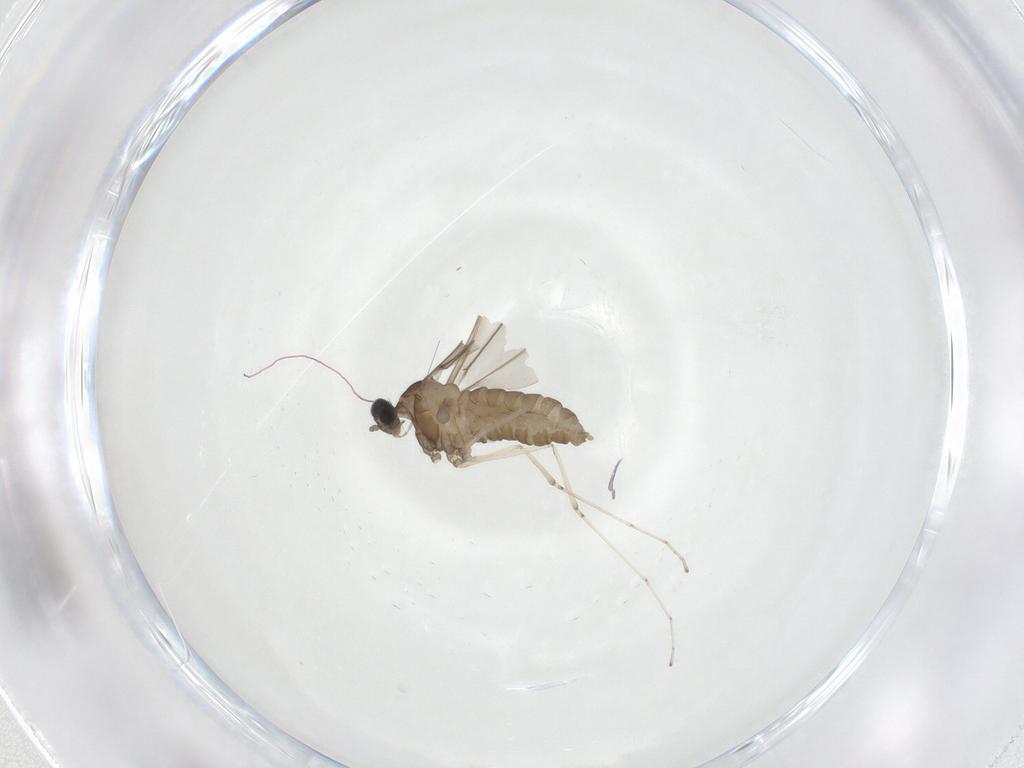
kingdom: Animalia
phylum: Arthropoda
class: Insecta
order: Diptera
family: Cecidomyiidae
